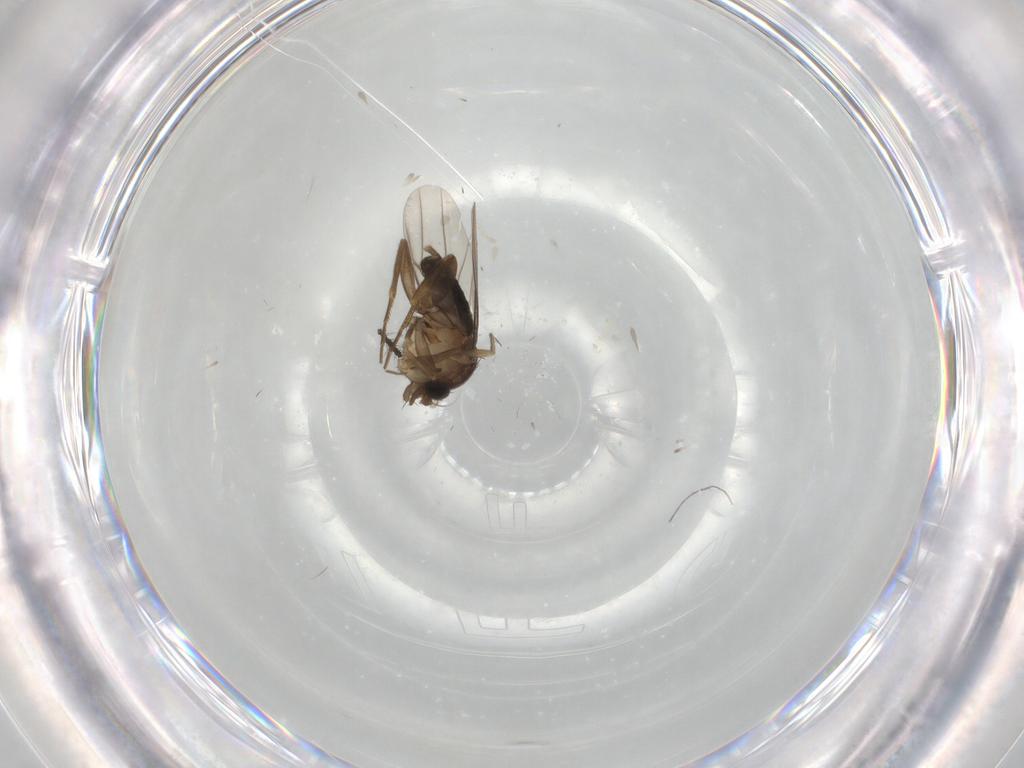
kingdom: Animalia
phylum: Arthropoda
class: Insecta
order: Diptera
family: Phoridae
